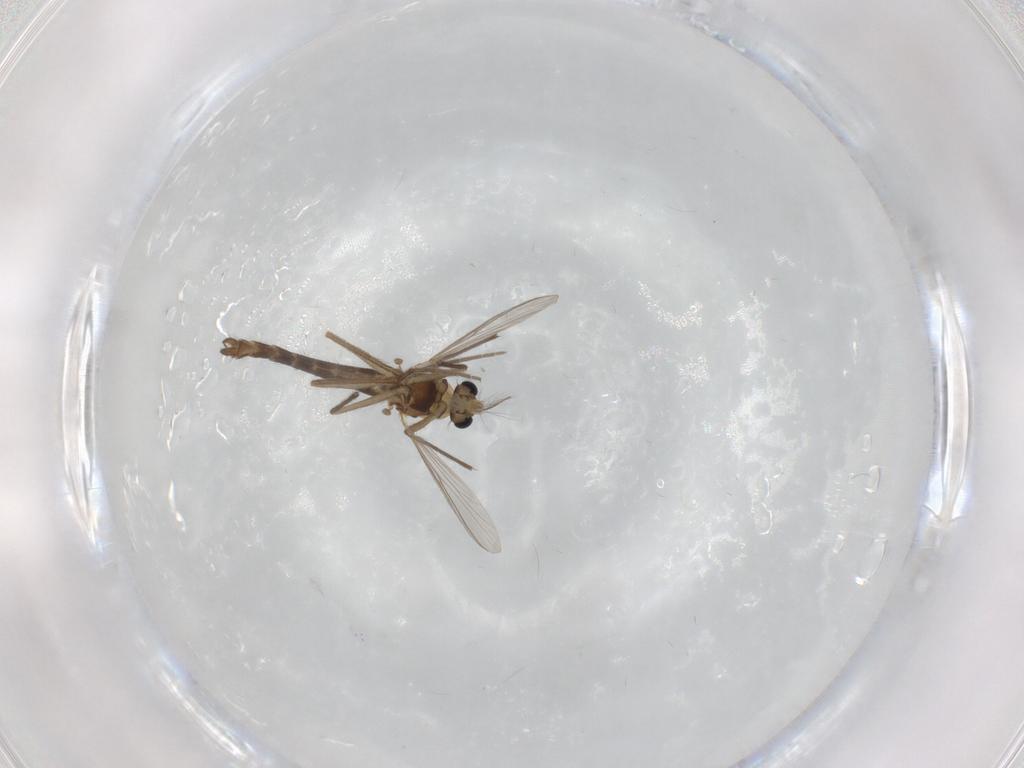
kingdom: Animalia
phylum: Arthropoda
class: Insecta
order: Diptera
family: Chironomidae
